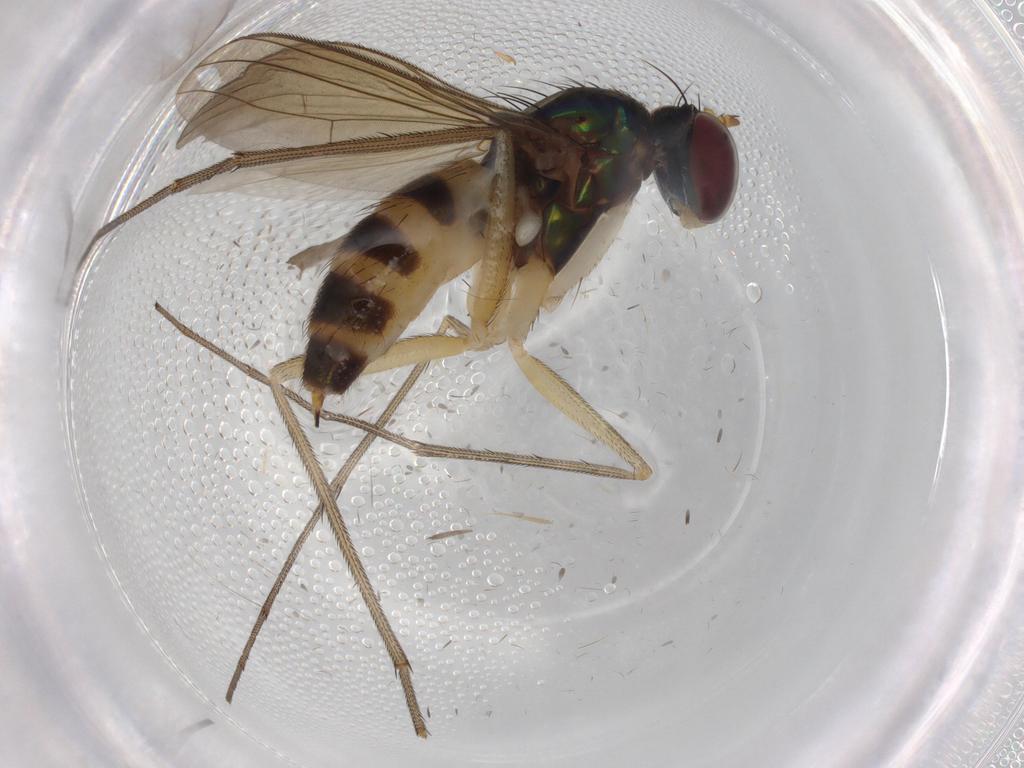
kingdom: Animalia
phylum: Arthropoda
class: Insecta
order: Diptera
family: Dolichopodidae
